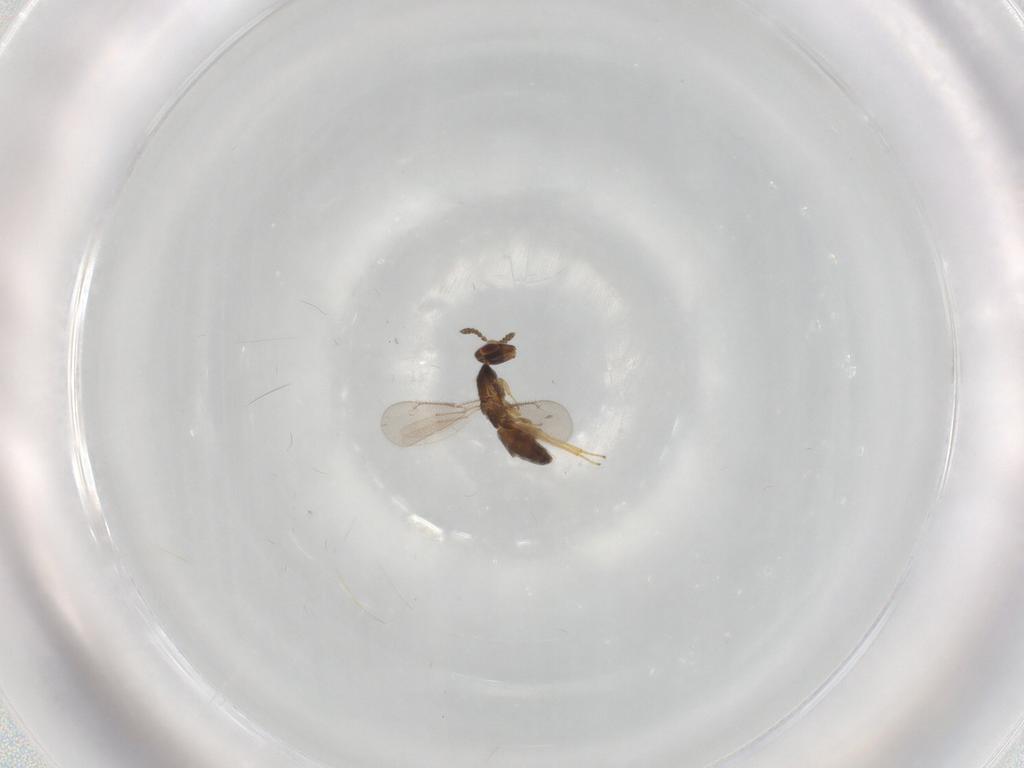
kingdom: Animalia
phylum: Arthropoda
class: Insecta
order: Hymenoptera
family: Eulophidae
